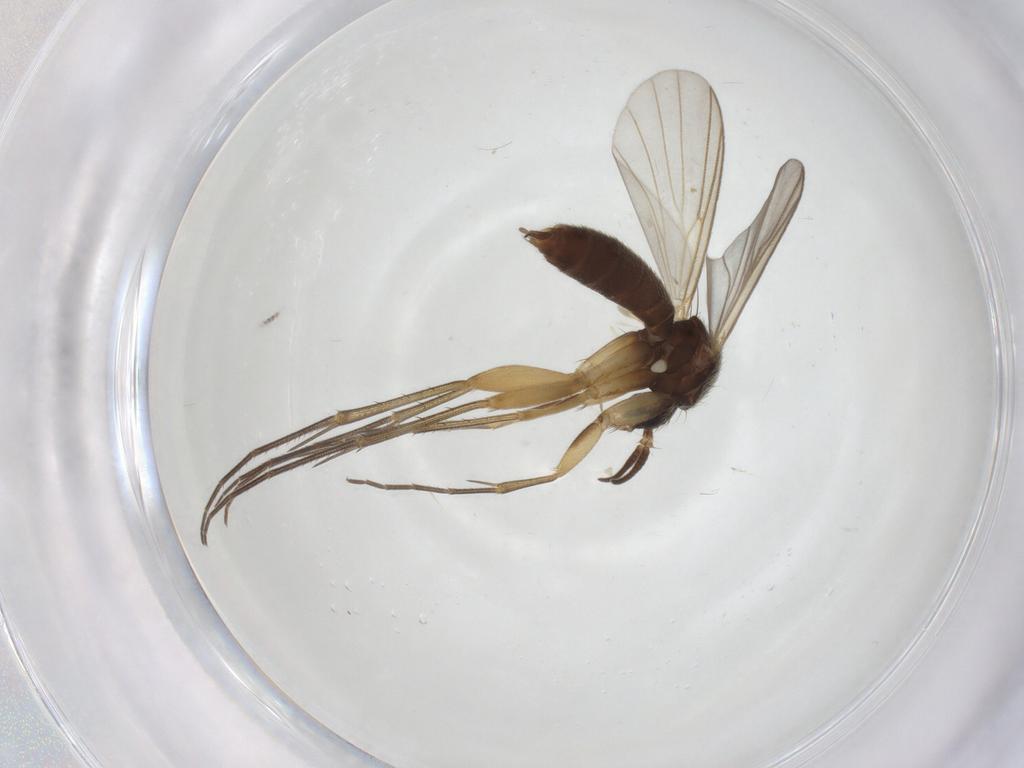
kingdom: Animalia
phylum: Arthropoda
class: Insecta
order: Diptera
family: Mycetophilidae
